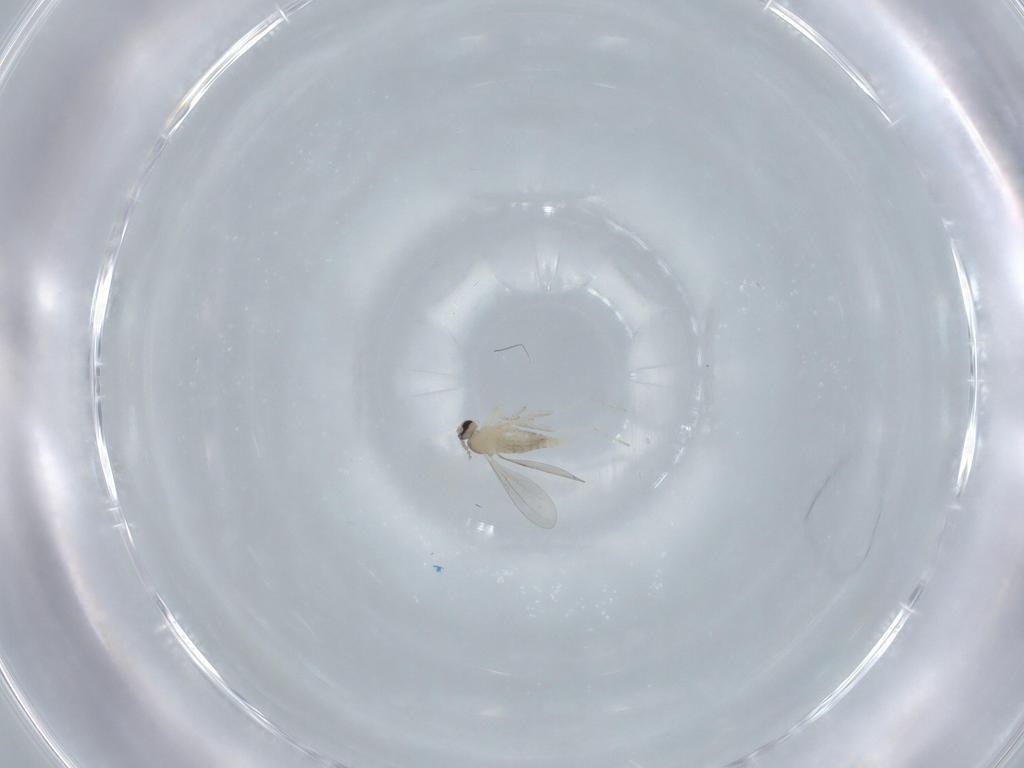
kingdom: Animalia
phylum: Arthropoda
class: Insecta
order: Diptera
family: Cecidomyiidae
